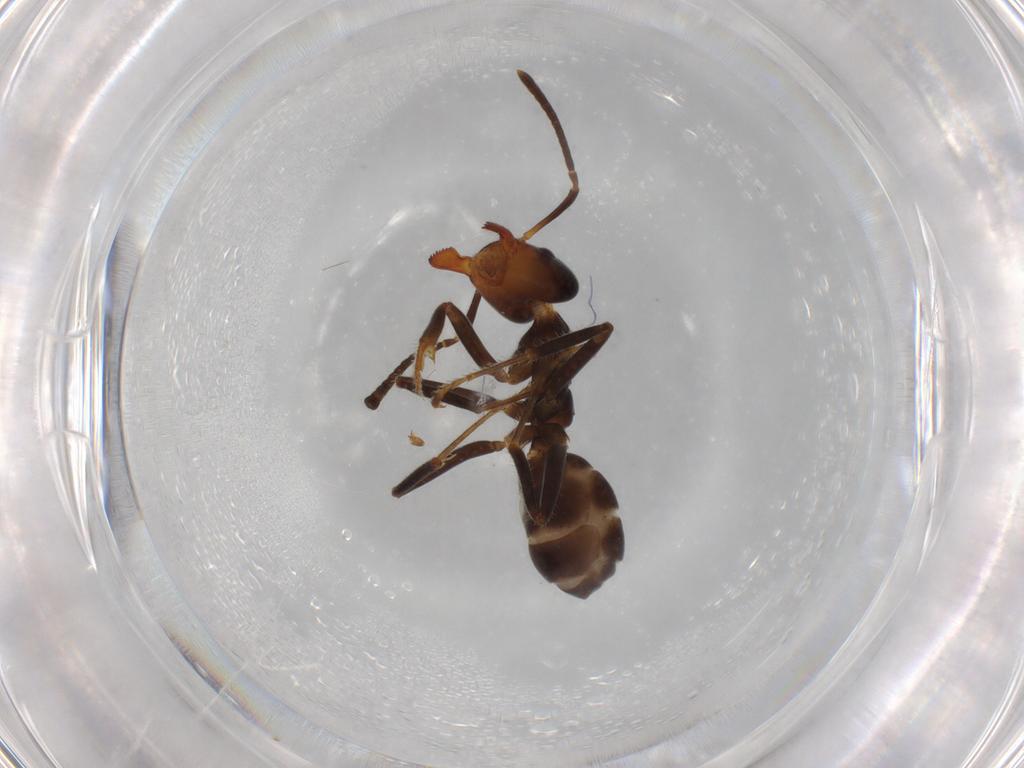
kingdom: Animalia
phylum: Arthropoda
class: Insecta
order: Hymenoptera
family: Formicidae
